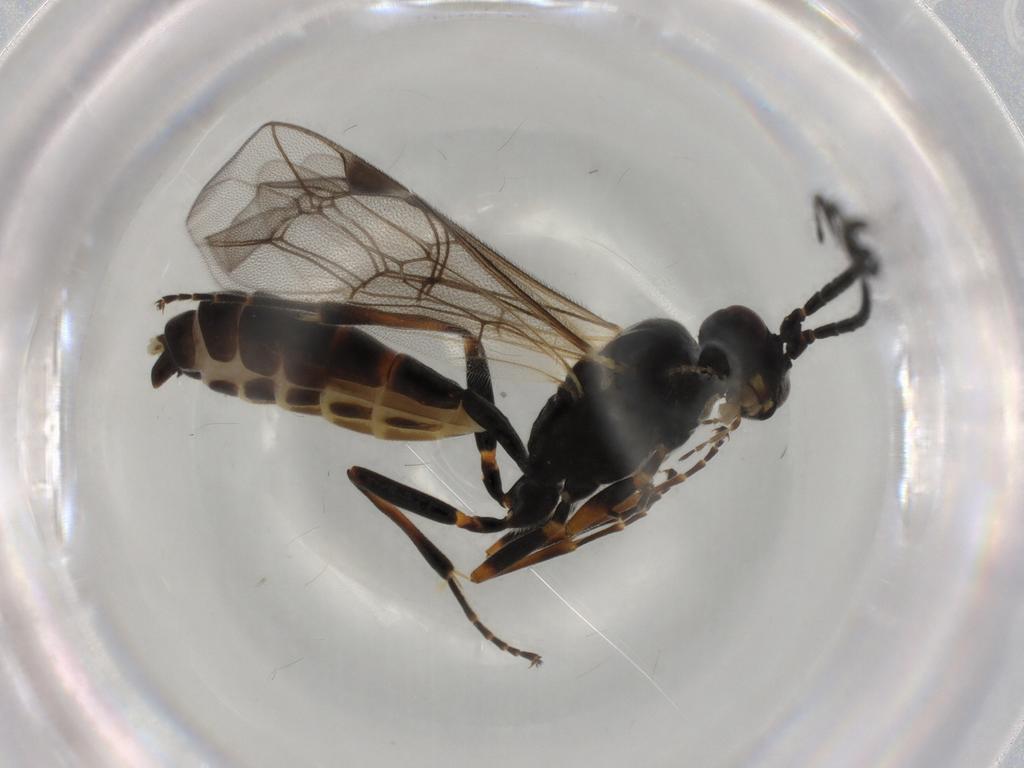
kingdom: Animalia
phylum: Arthropoda
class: Insecta
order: Hymenoptera
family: Ichneumonidae
